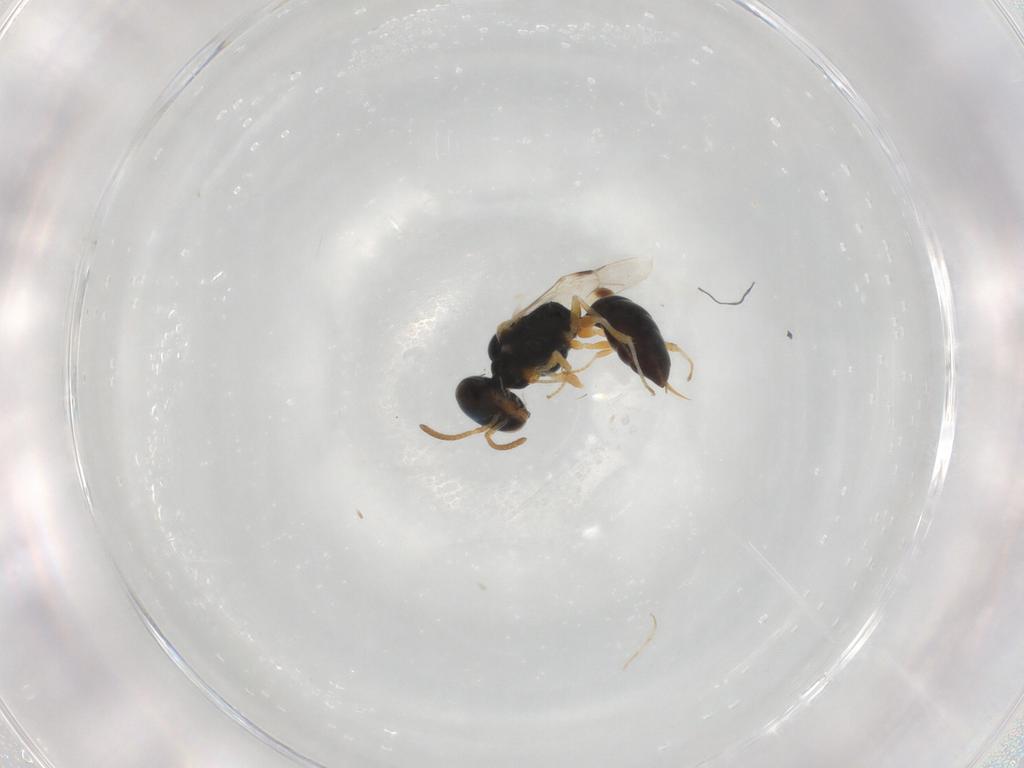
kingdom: Animalia
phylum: Arthropoda
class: Insecta
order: Hymenoptera
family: Pemphredonidae
